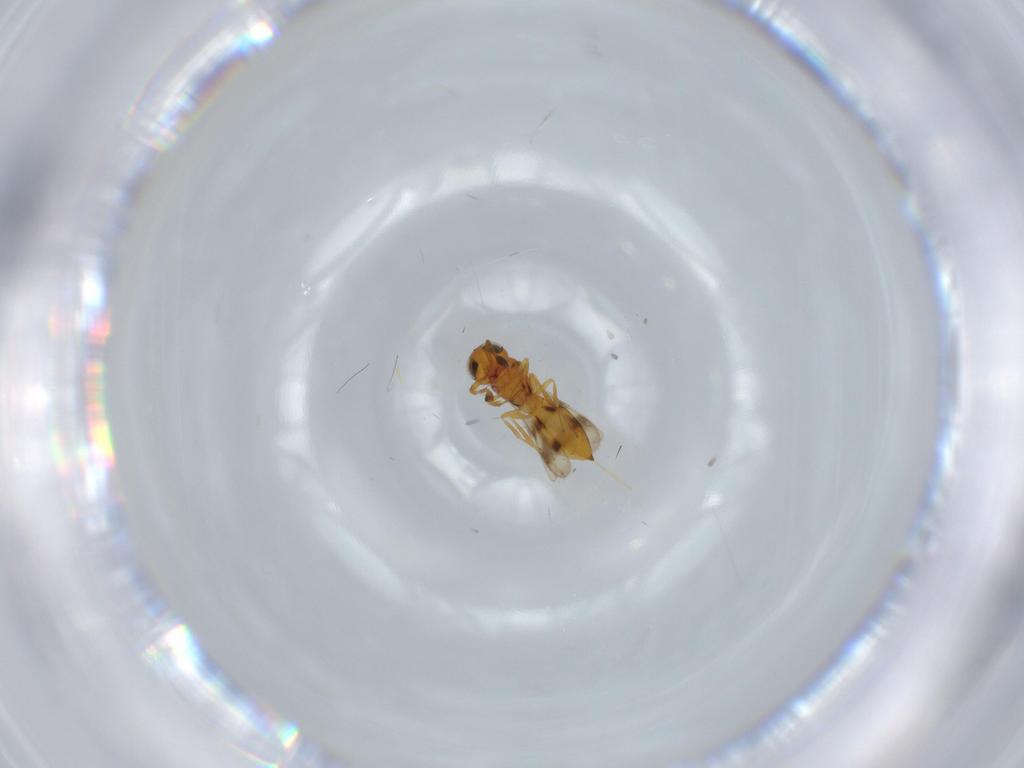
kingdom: Animalia
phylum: Arthropoda
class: Insecta
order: Hymenoptera
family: Scelionidae
